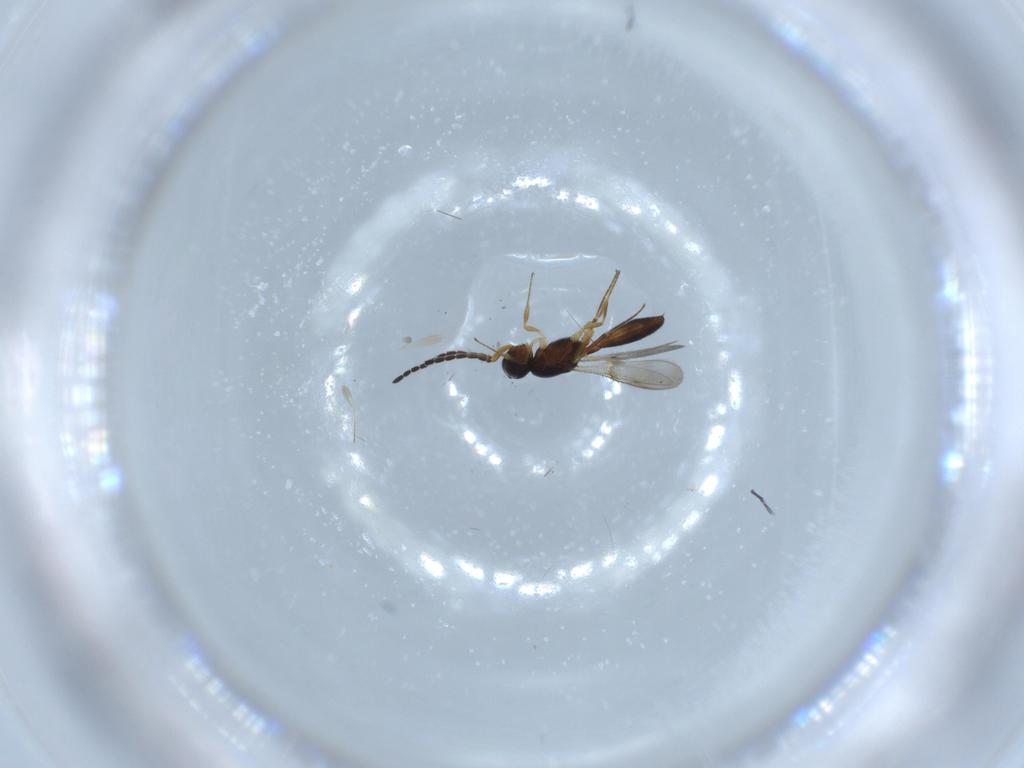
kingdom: Animalia
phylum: Arthropoda
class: Insecta
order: Hymenoptera
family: Scelionidae
